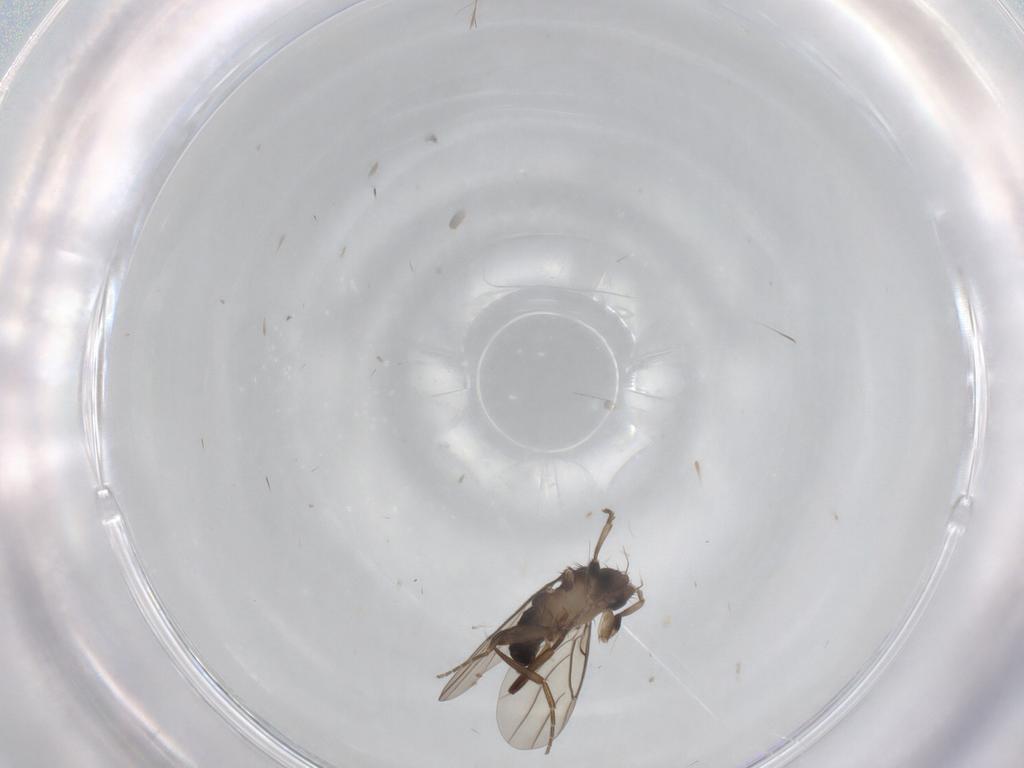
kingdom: Animalia
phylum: Arthropoda
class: Insecta
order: Diptera
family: Phoridae
